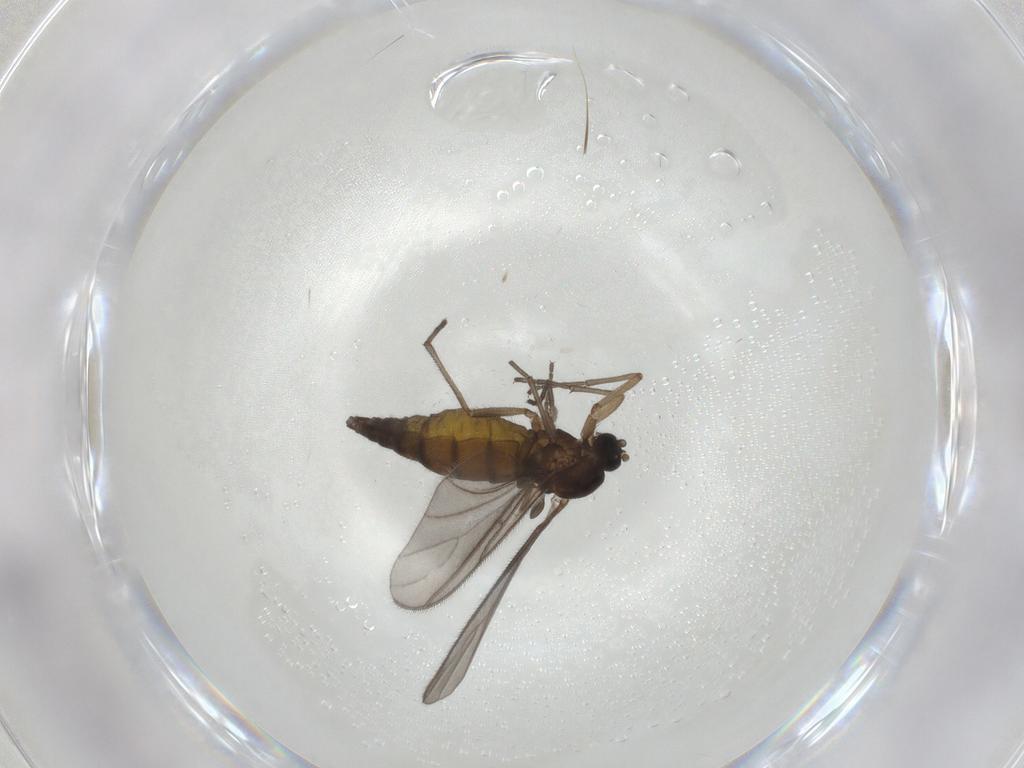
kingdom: Animalia
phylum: Arthropoda
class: Insecta
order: Diptera
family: Sciaridae
